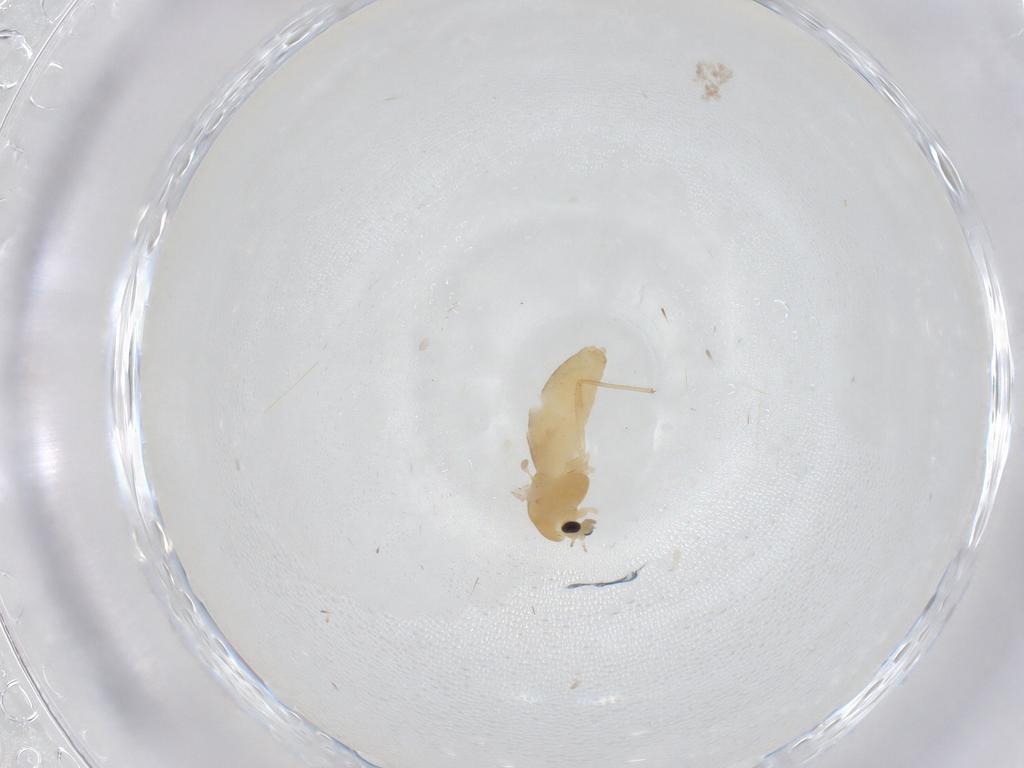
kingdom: Animalia
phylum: Arthropoda
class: Insecta
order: Diptera
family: Chironomidae
